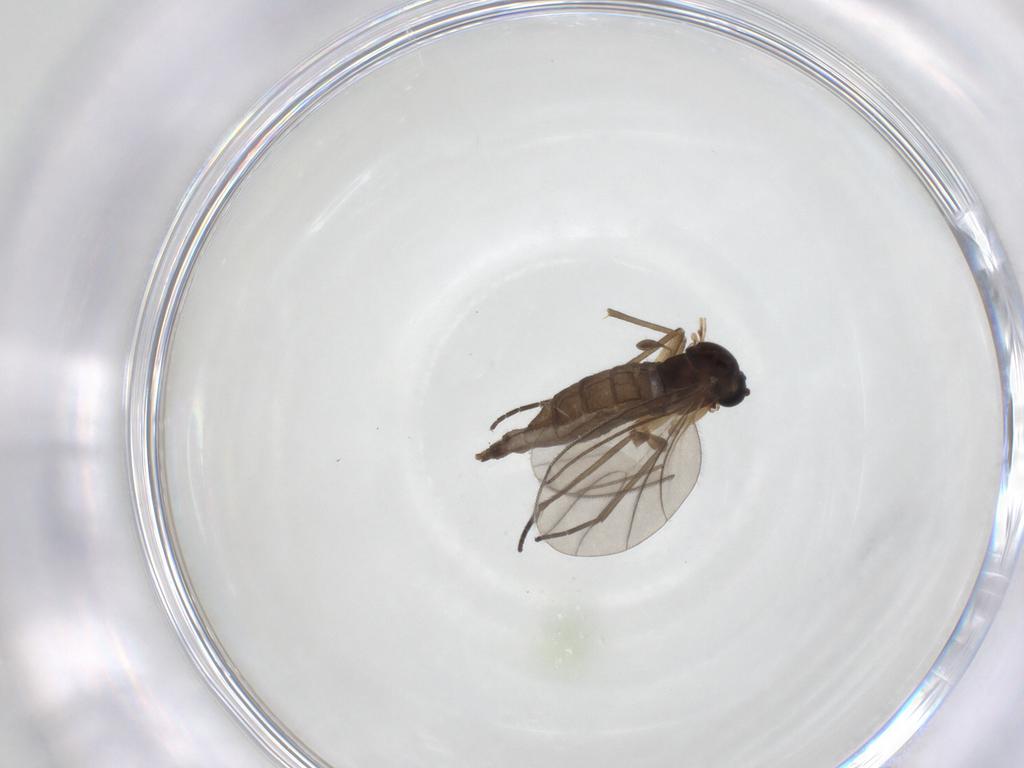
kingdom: Animalia
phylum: Arthropoda
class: Insecta
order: Diptera
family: Sciaridae
